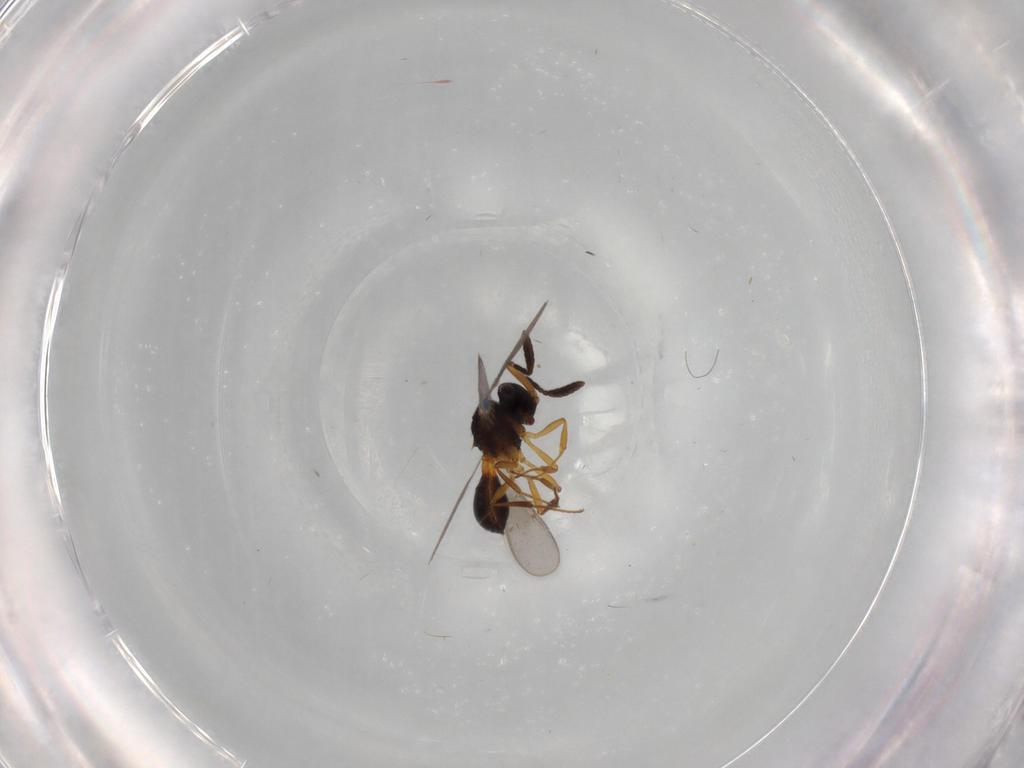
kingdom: Animalia
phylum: Arthropoda
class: Insecta
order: Hymenoptera
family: Scelionidae
